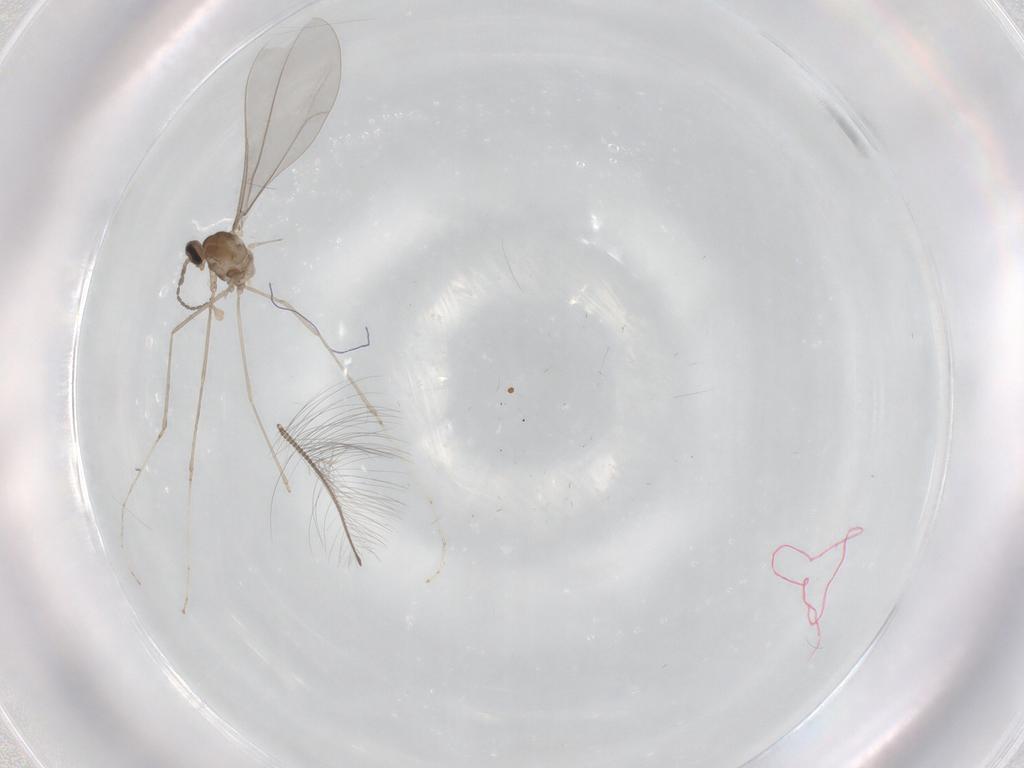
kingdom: Animalia
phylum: Arthropoda
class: Insecta
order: Diptera
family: Cecidomyiidae
